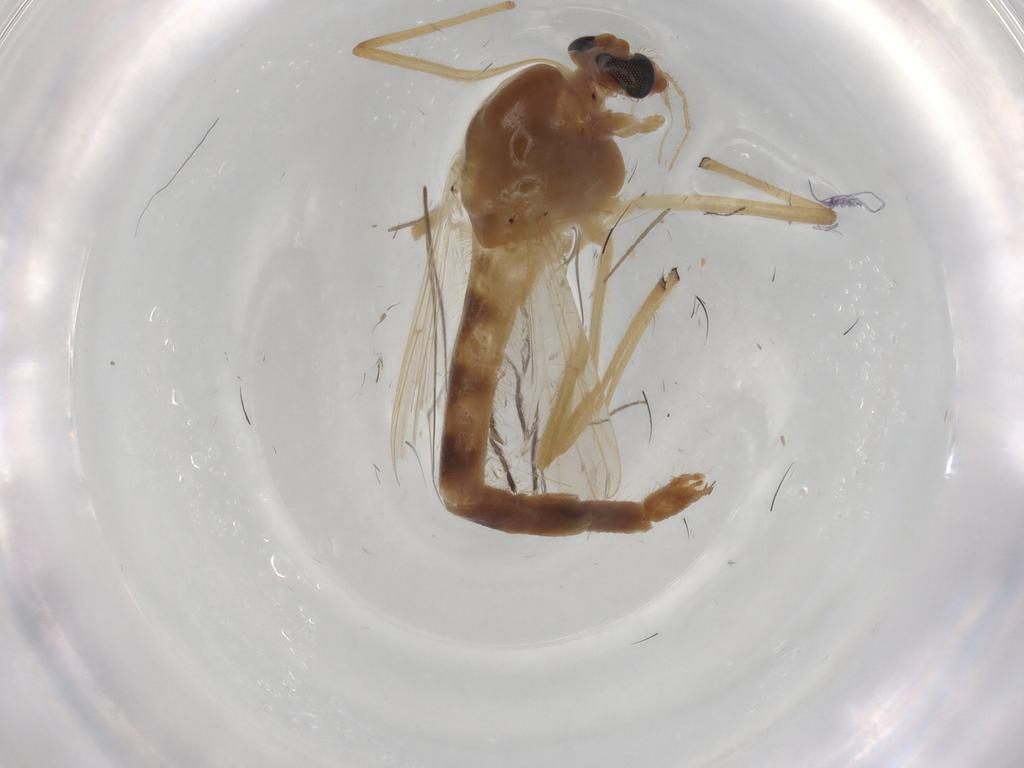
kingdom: Animalia
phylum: Arthropoda
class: Insecta
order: Diptera
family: Limoniidae
